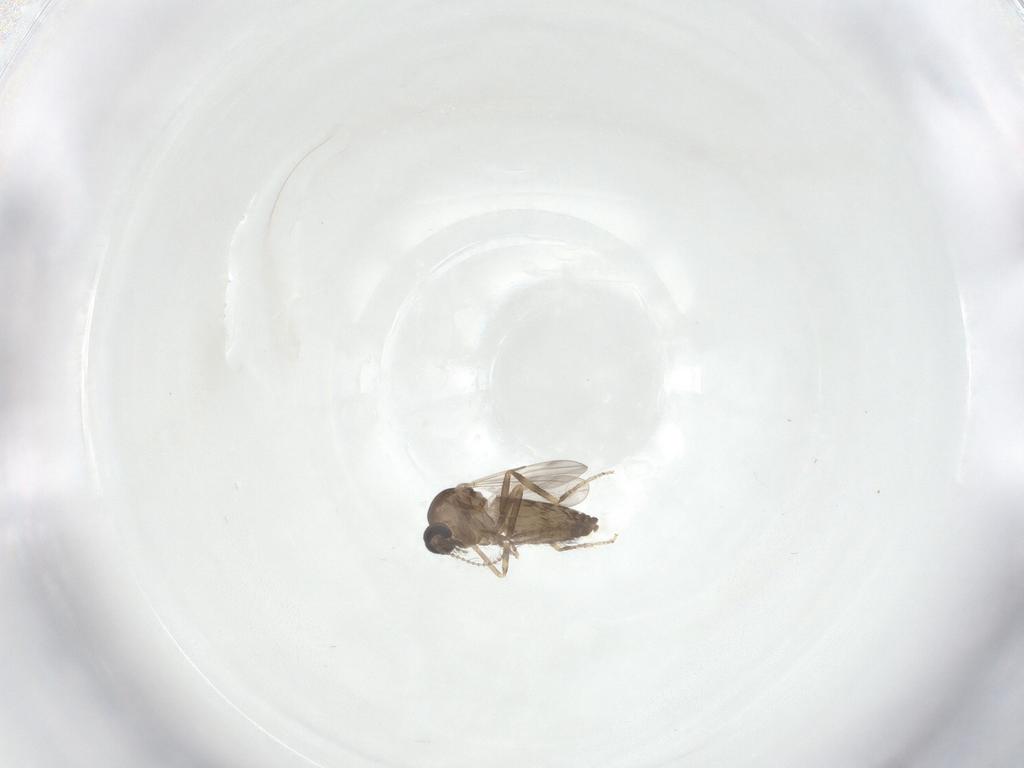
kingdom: Animalia
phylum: Arthropoda
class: Insecta
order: Diptera
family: Ceratopogonidae
